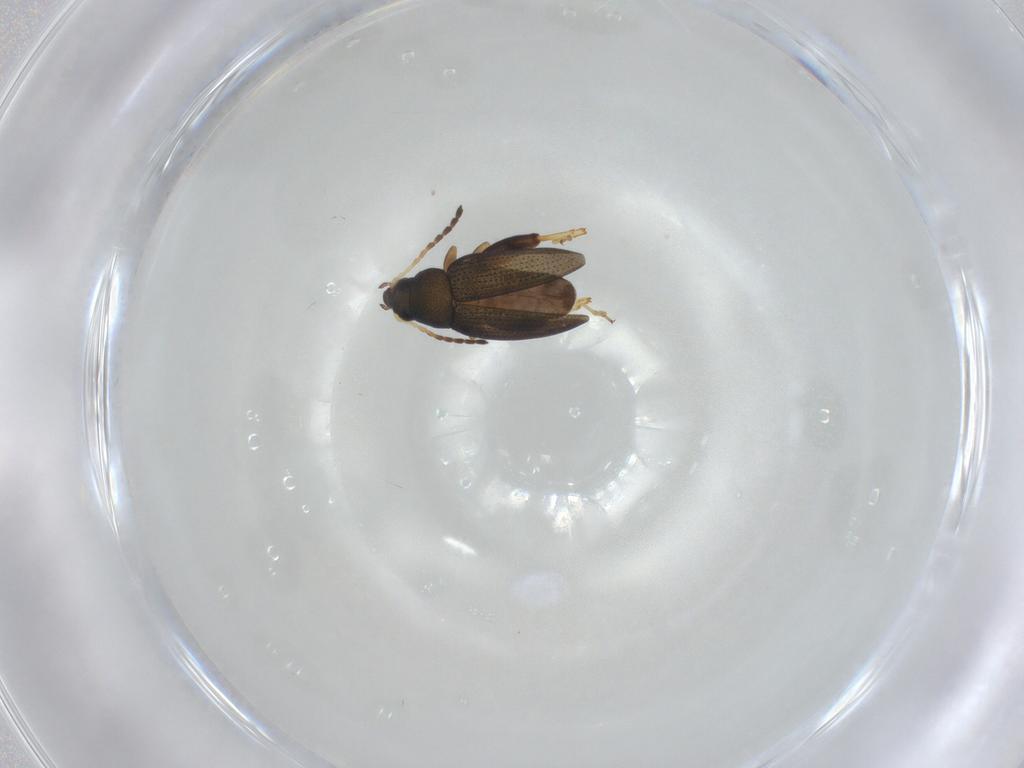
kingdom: Animalia
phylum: Arthropoda
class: Insecta
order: Coleoptera
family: Chrysomelidae
